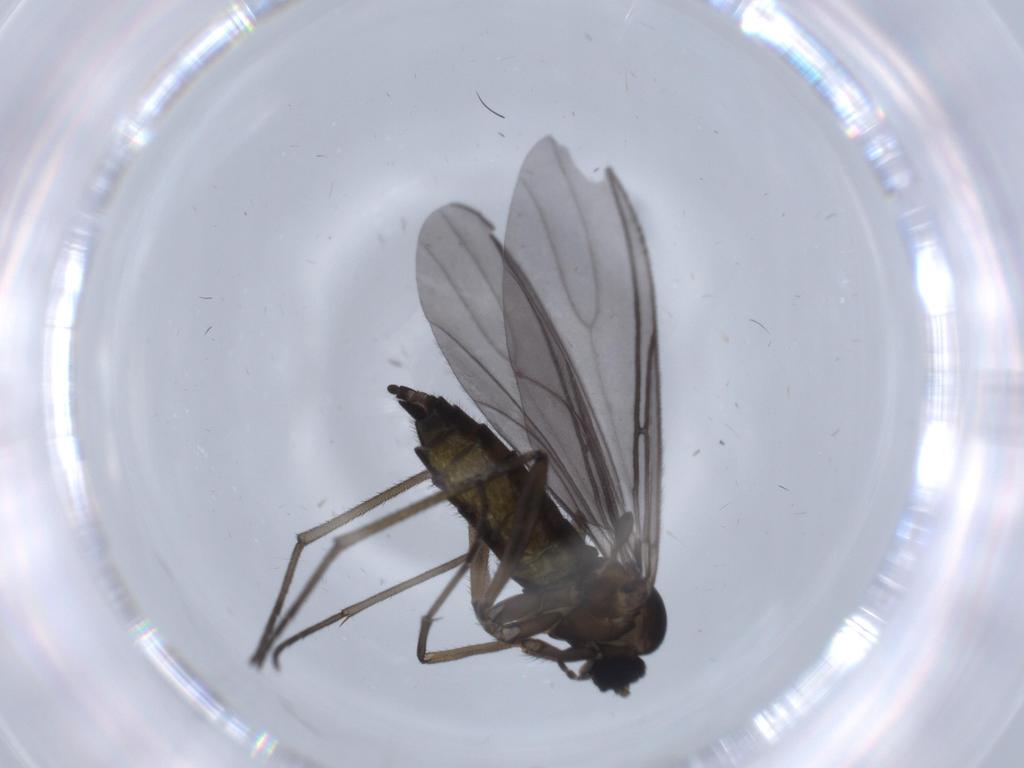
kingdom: Animalia
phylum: Arthropoda
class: Insecta
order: Diptera
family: Sciaridae
